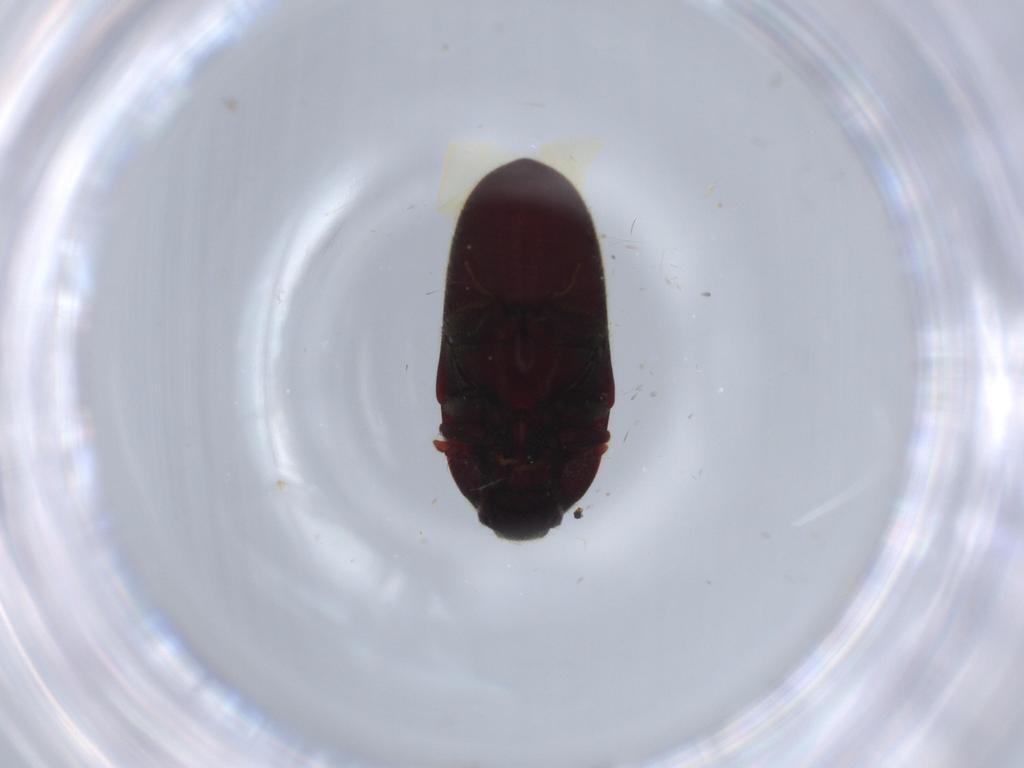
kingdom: Animalia
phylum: Arthropoda
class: Insecta
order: Coleoptera
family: Throscidae
